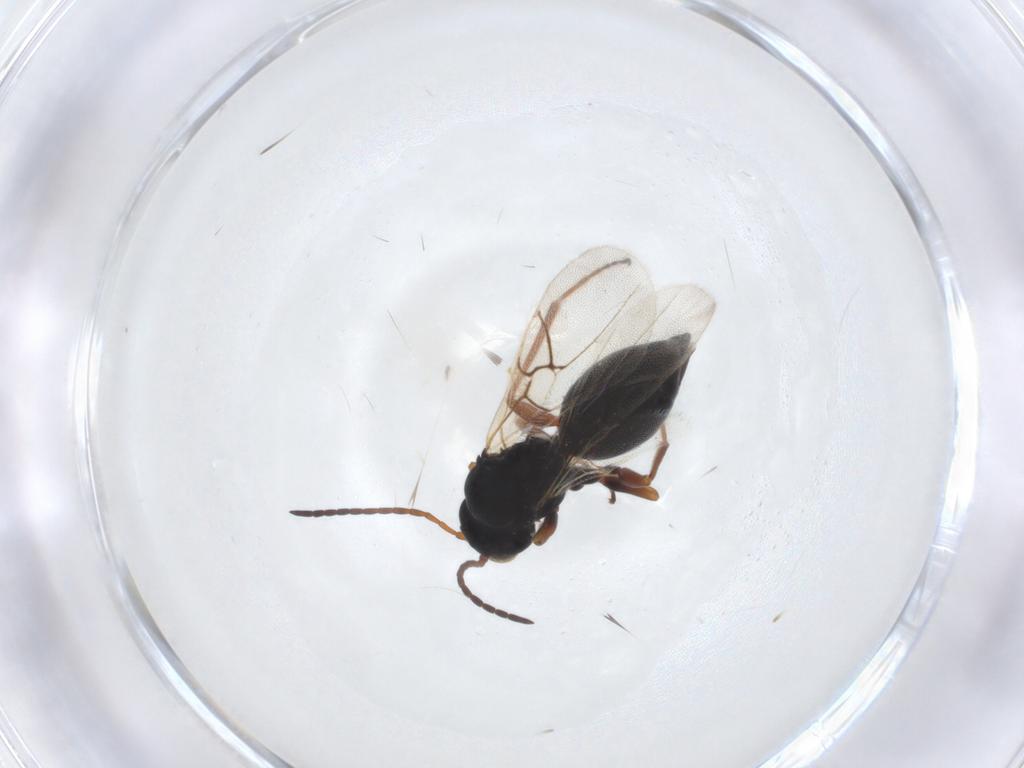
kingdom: Animalia
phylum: Arthropoda
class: Insecta
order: Hymenoptera
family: Cynipidae
